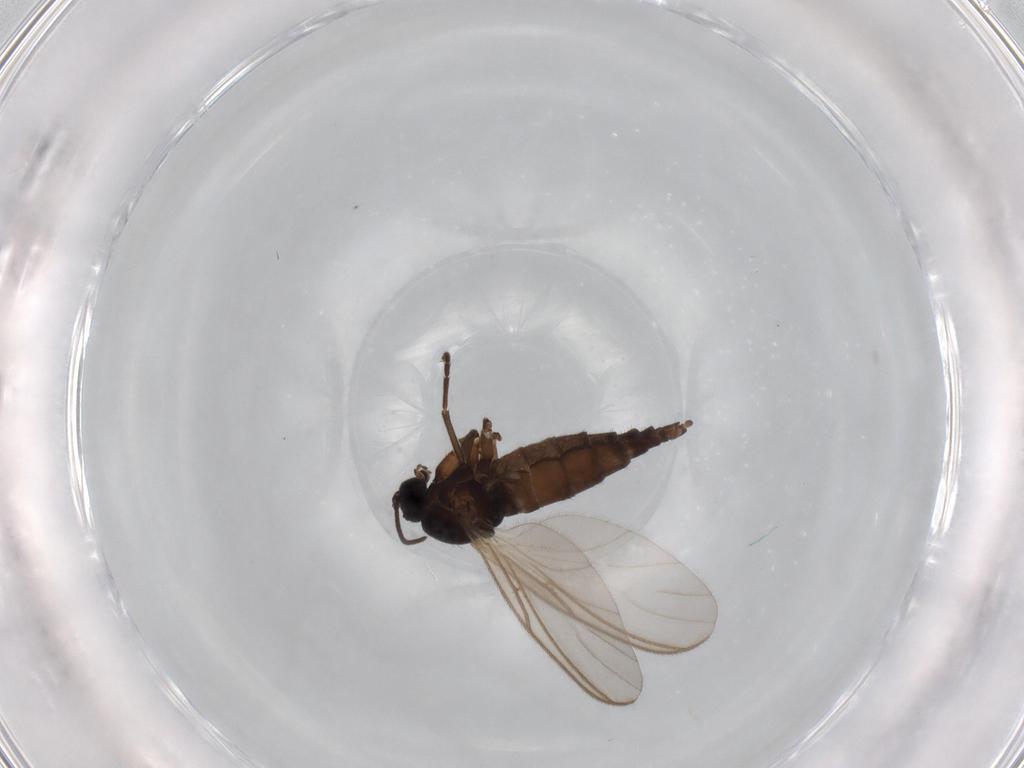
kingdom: Animalia
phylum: Arthropoda
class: Insecta
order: Diptera
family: Sciaridae
